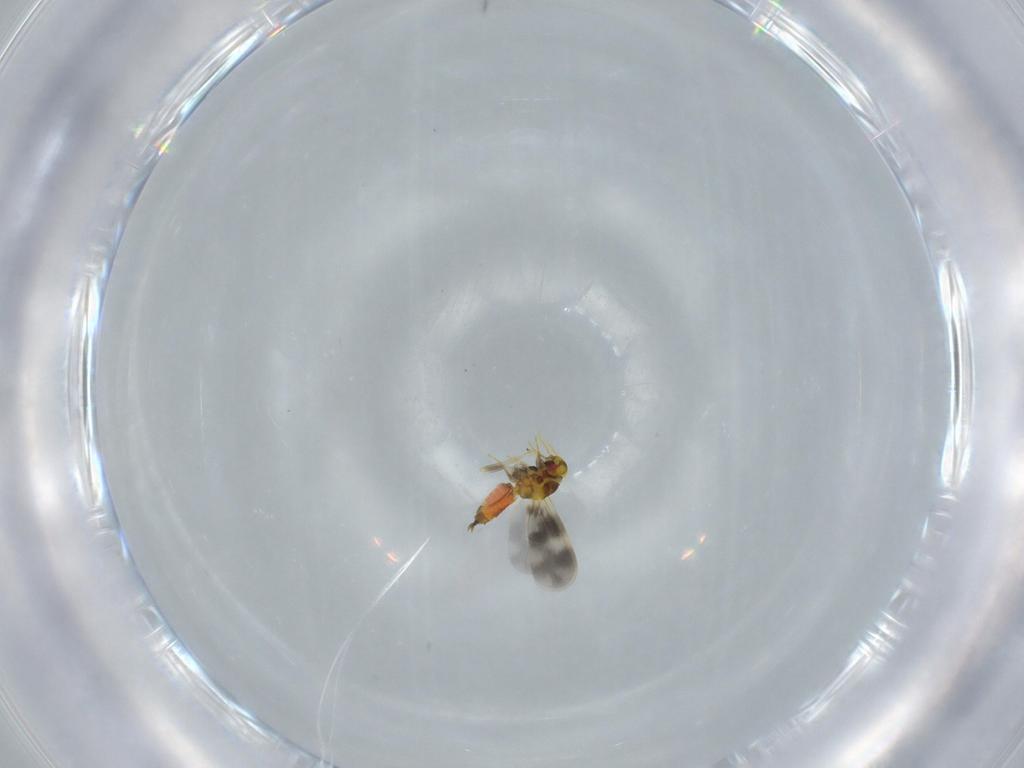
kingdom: Animalia
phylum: Arthropoda
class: Insecta
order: Hemiptera
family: Aleyrodidae
